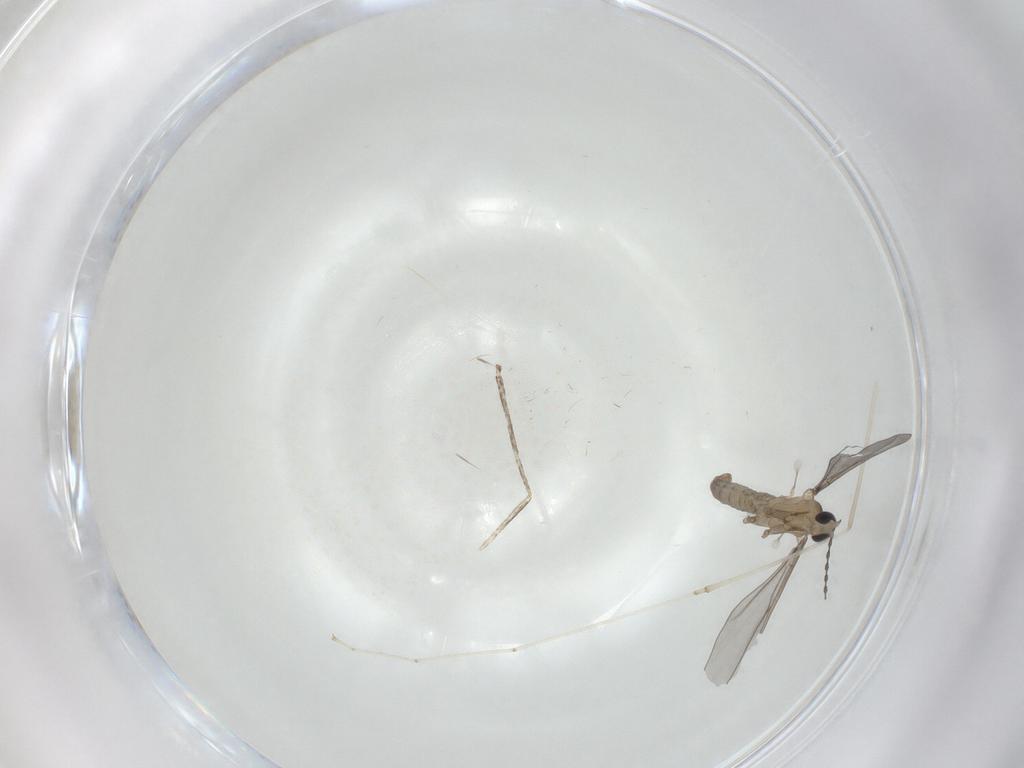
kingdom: Animalia
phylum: Arthropoda
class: Insecta
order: Diptera
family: Cecidomyiidae
